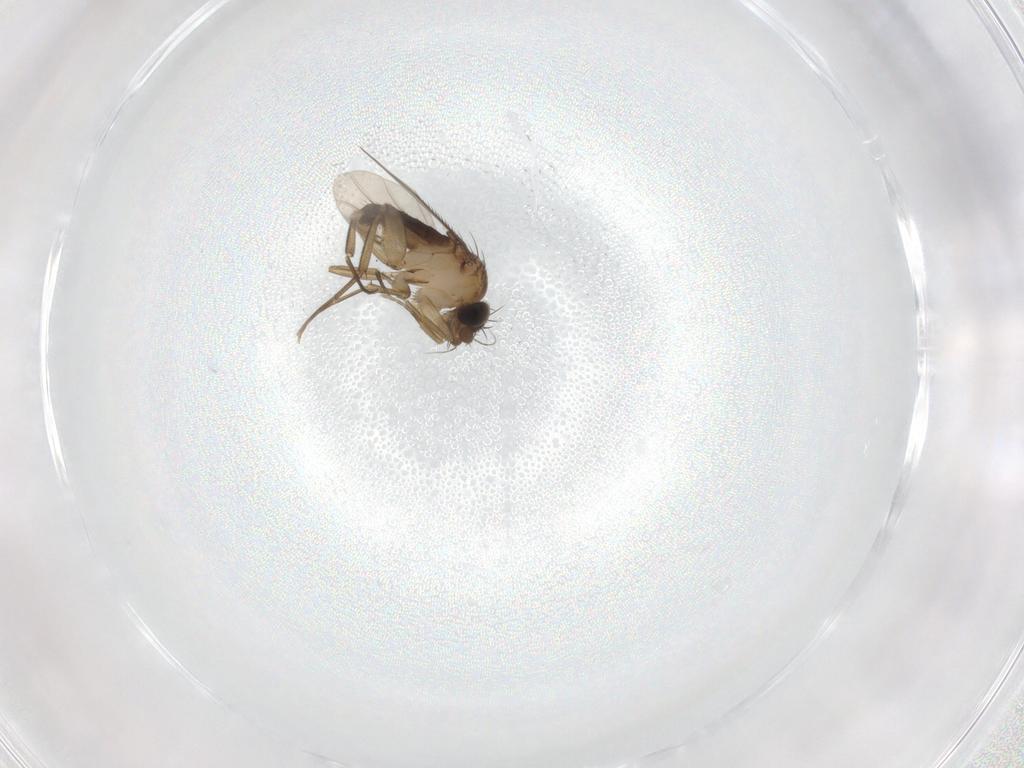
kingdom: Animalia
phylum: Arthropoda
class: Insecta
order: Diptera
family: Phoridae
